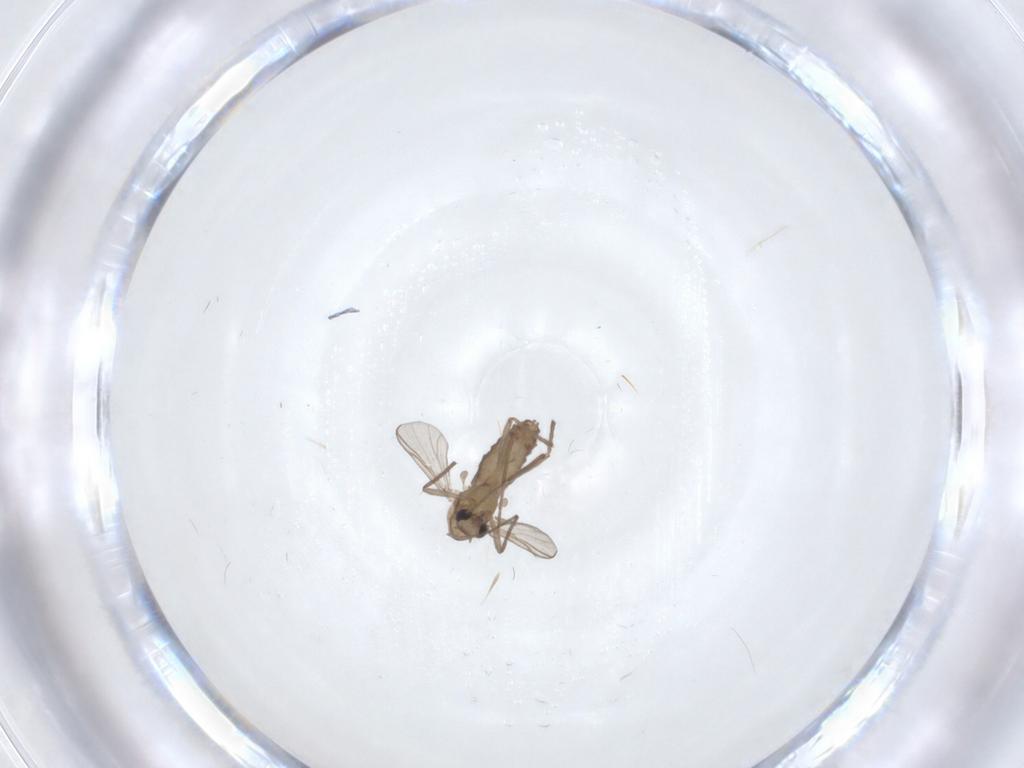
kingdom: Animalia
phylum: Arthropoda
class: Insecta
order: Diptera
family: Chironomidae
